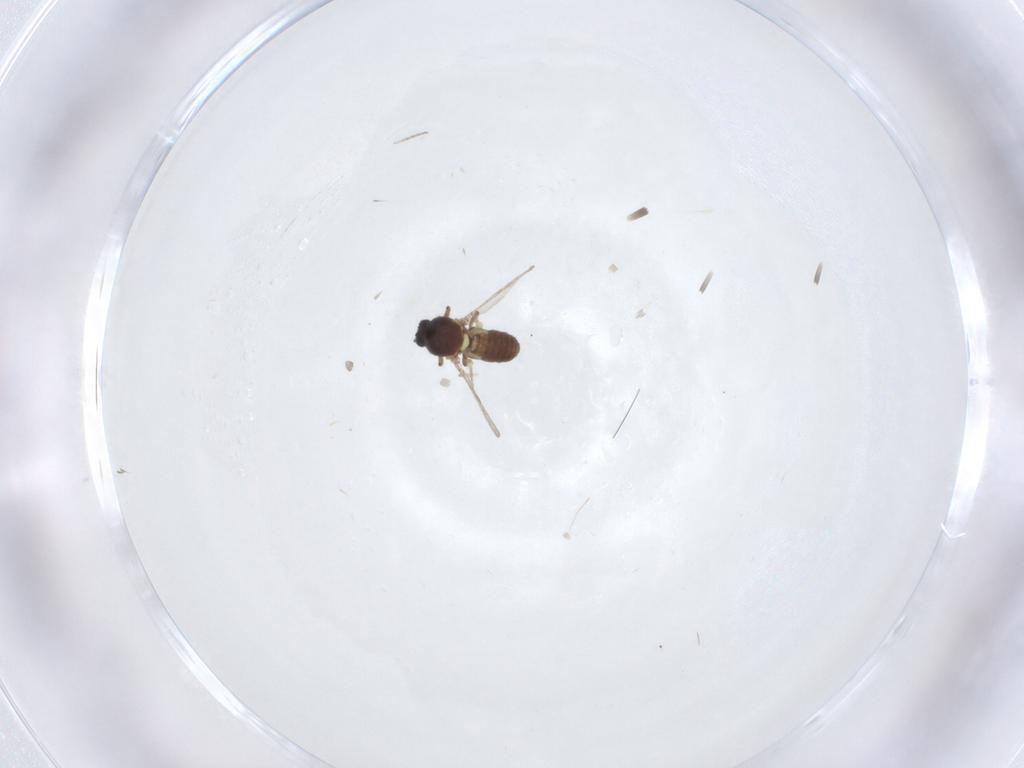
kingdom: Animalia
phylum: Arthropoda
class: Insecta
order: Diptera
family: Ceratopogonidae
